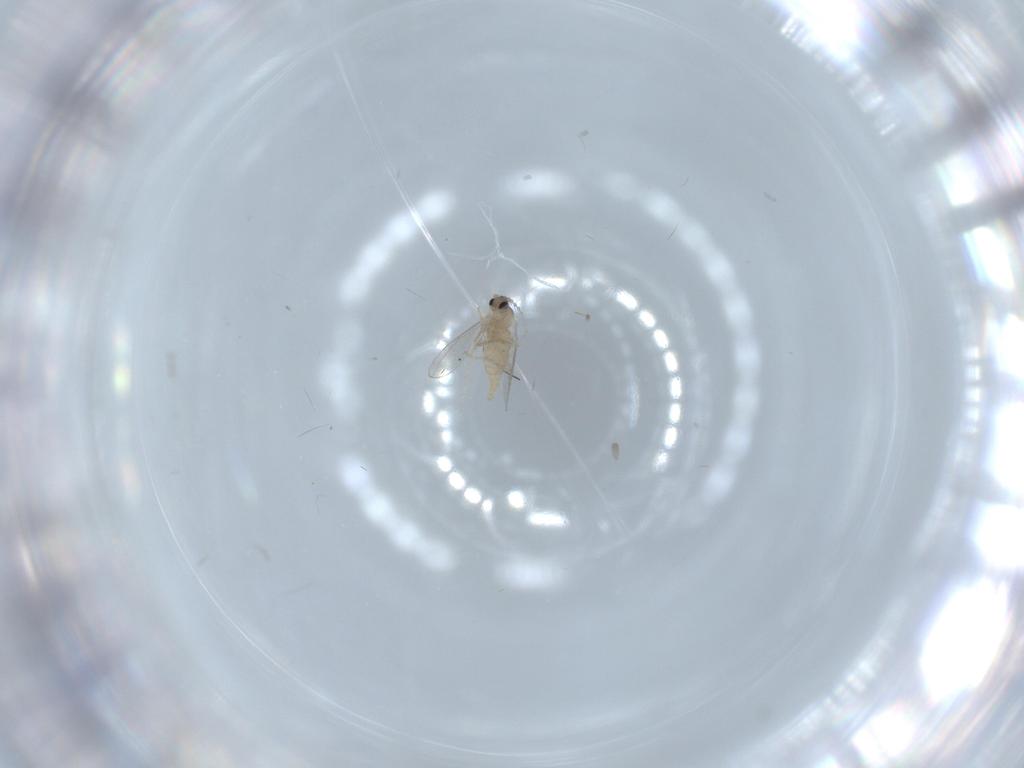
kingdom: Animalia
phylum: Arthropoda
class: Insecta
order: Diptera
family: Cecidomyiidae
